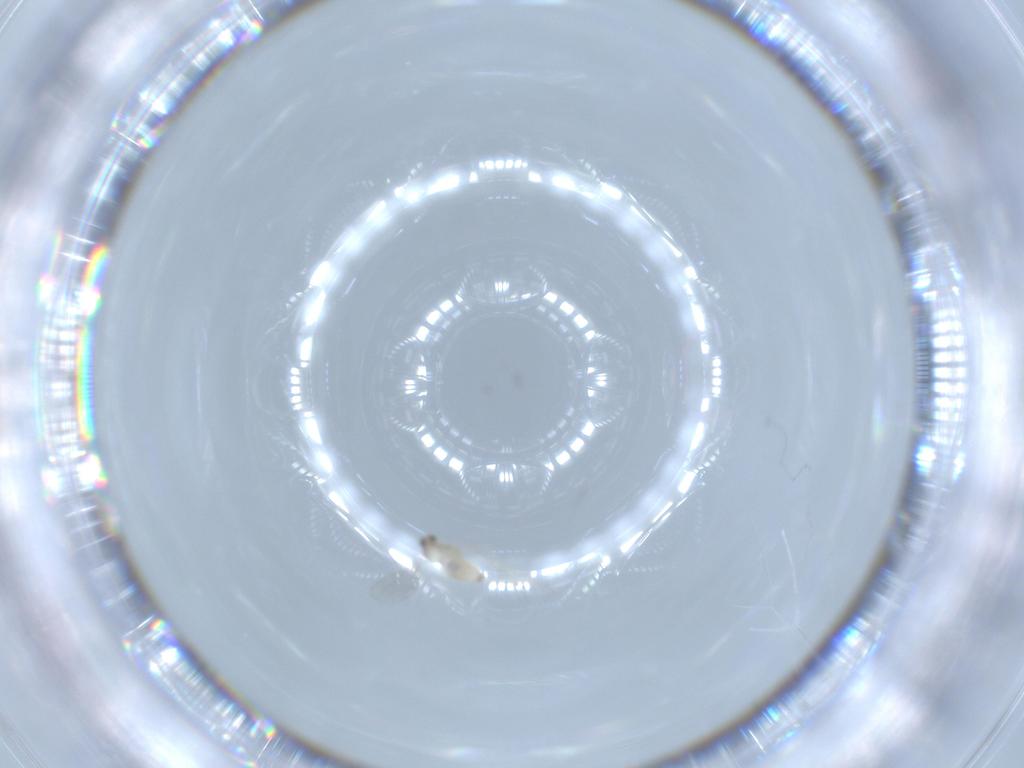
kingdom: Animalia
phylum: Arthropoda
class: Insecta
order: Diptera
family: Cecidomyiidae
